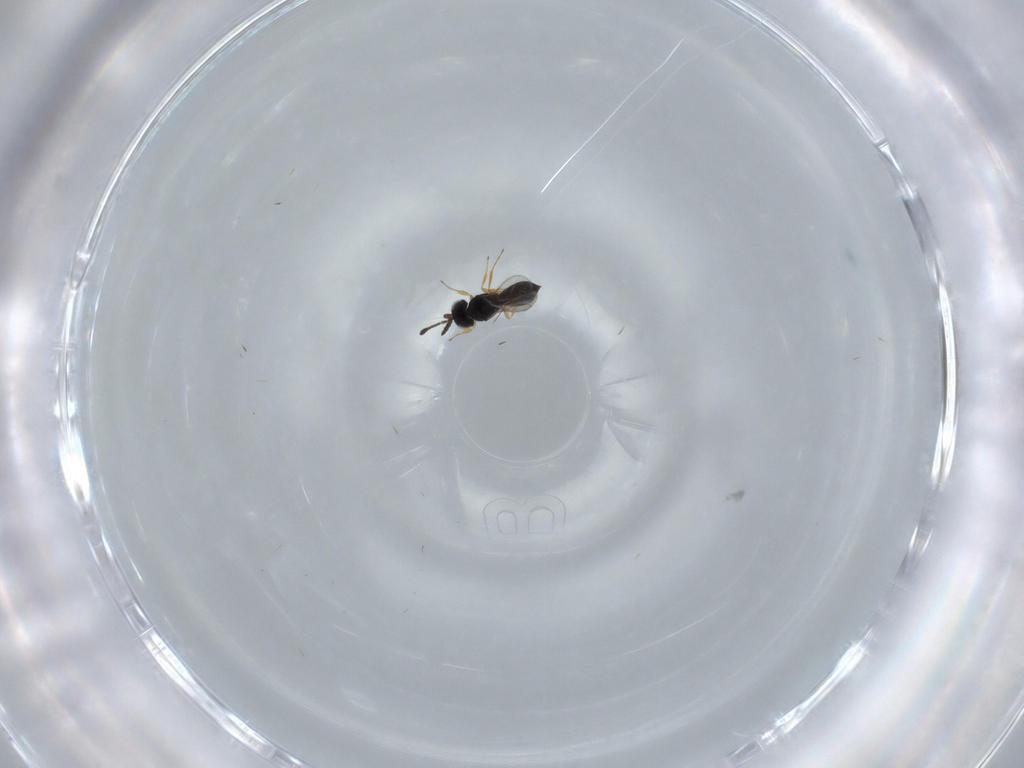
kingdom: Animalia
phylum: Arthropoda
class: Insecta
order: Hymenoptera
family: Scelionidae
